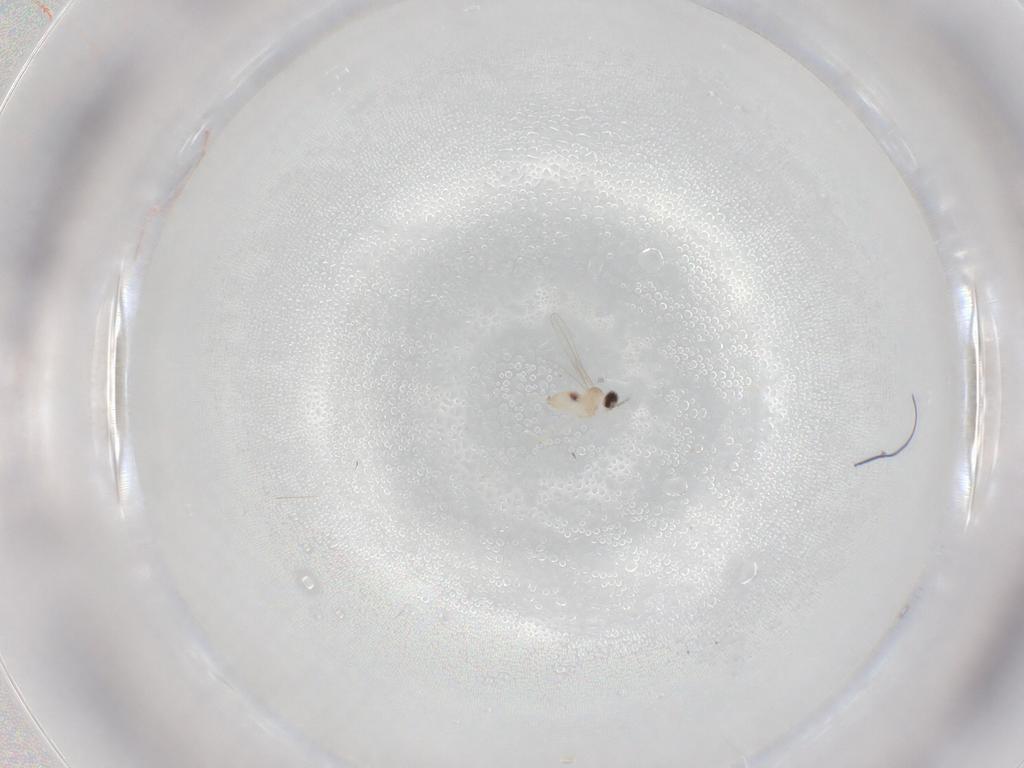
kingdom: Animalia
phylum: Arthropoda
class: Insecta
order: Diptera
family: Cecidomyiidae
